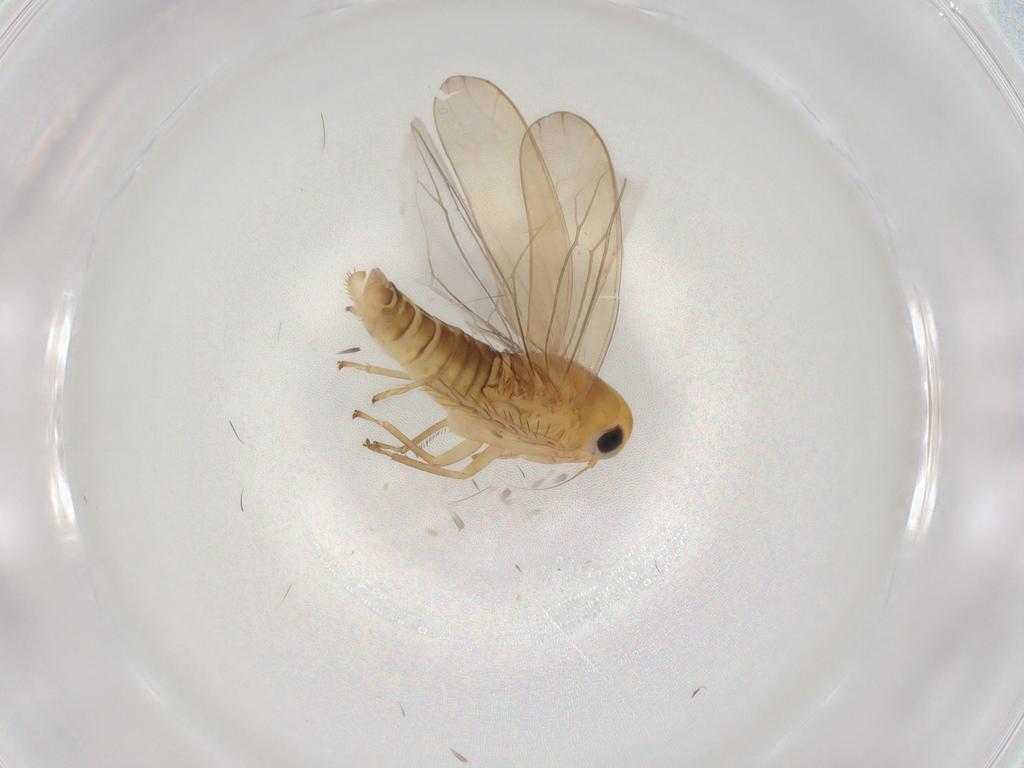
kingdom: Animalia
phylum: Arthropoda
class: Insecta
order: Hemiptera
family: Cicadellidae
